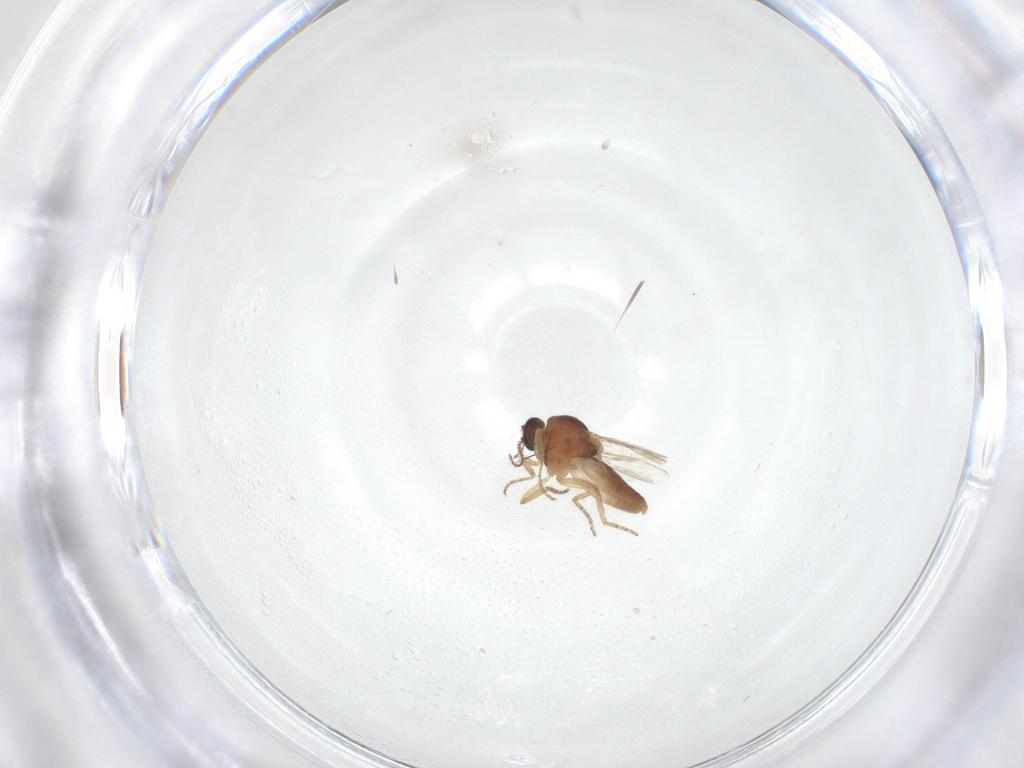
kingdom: Animalia
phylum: Arthropoda
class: Insecta
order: Diptera
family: Ceratopogonidae
